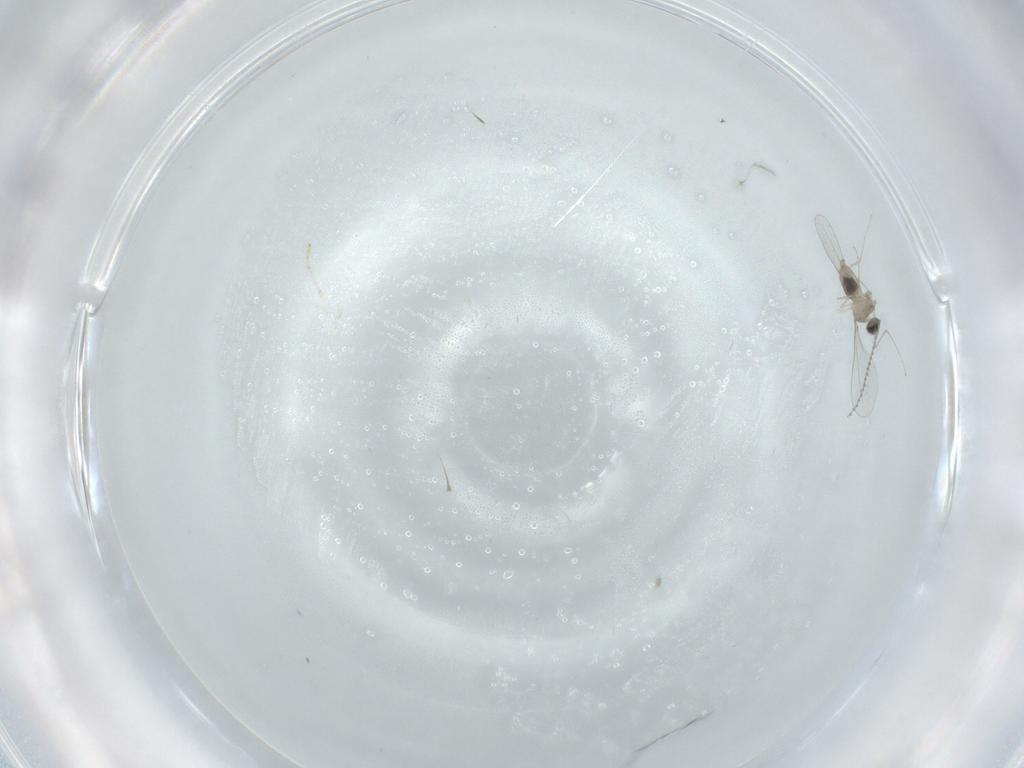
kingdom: Animalia
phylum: Arthropoda
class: Insecta
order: Diptera
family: Cecidomyiidae
